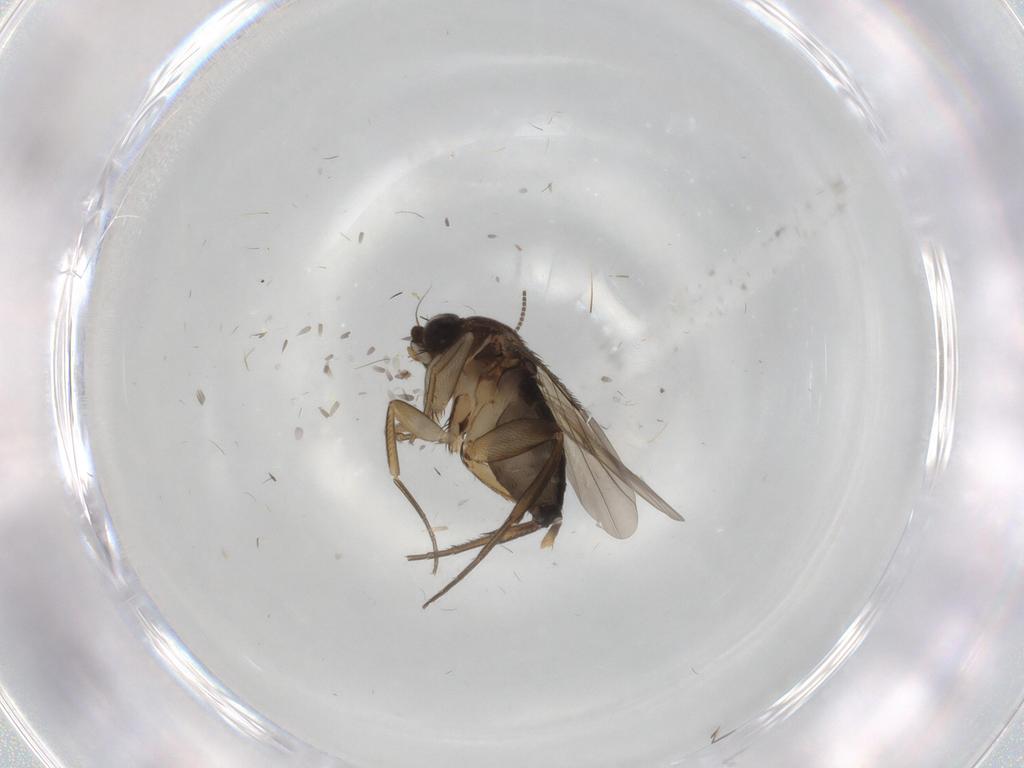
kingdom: Animalia
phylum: Arthropoda
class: Insecta
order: Diptera
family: Phoridae
